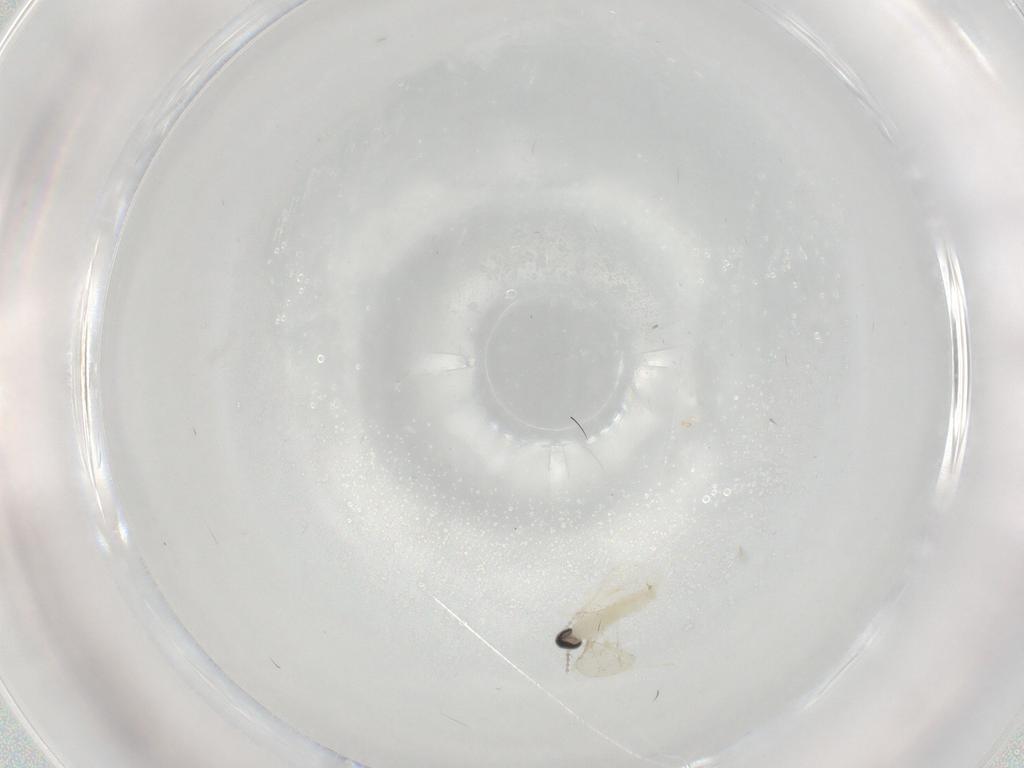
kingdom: Animalia
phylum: Arthropoda
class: Insecta
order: Diptera
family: Cecidomyiidae
